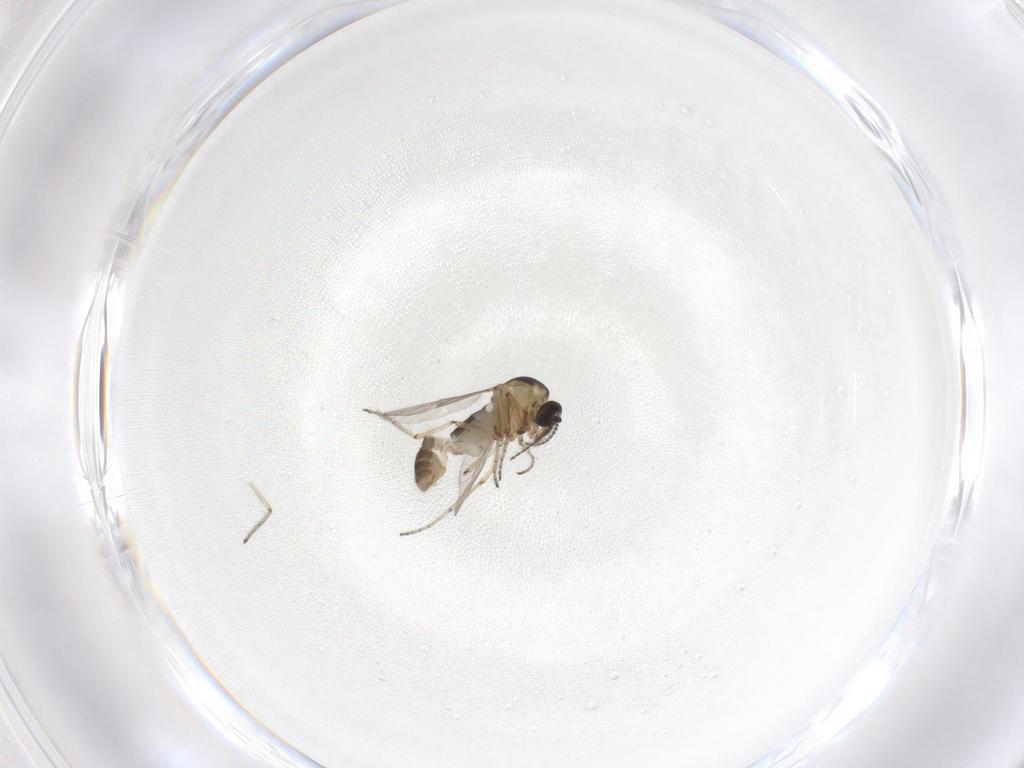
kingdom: Animalia
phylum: Arthropoda
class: Insecta
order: Diptera
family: Ceratopogonidae
